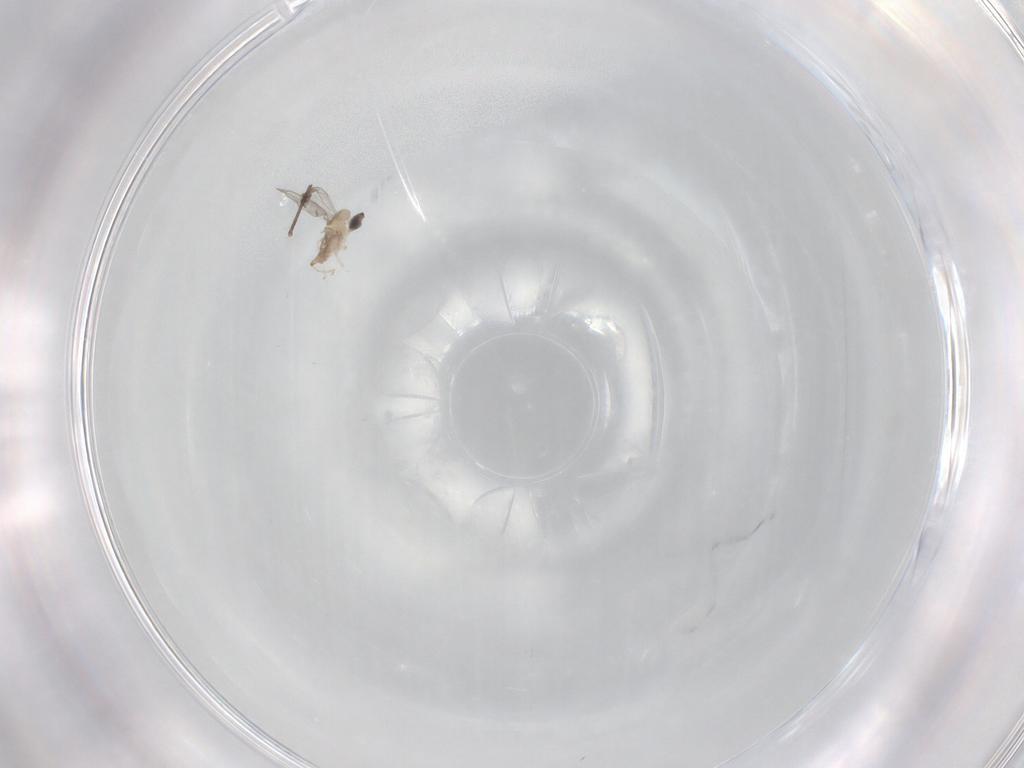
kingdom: Animalia
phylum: Arthropoda
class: Insecta
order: Diptera
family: Cecidomyiidae
